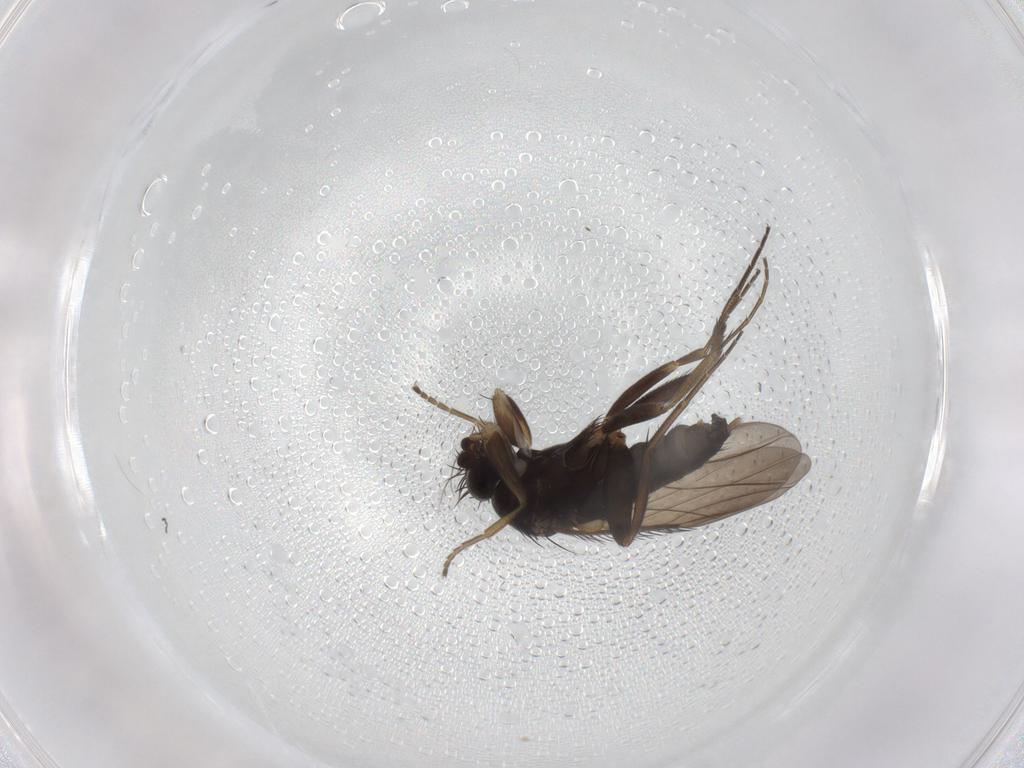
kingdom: Animalia
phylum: Arthropoda
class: Insecta
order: Diptera
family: Phoridae
